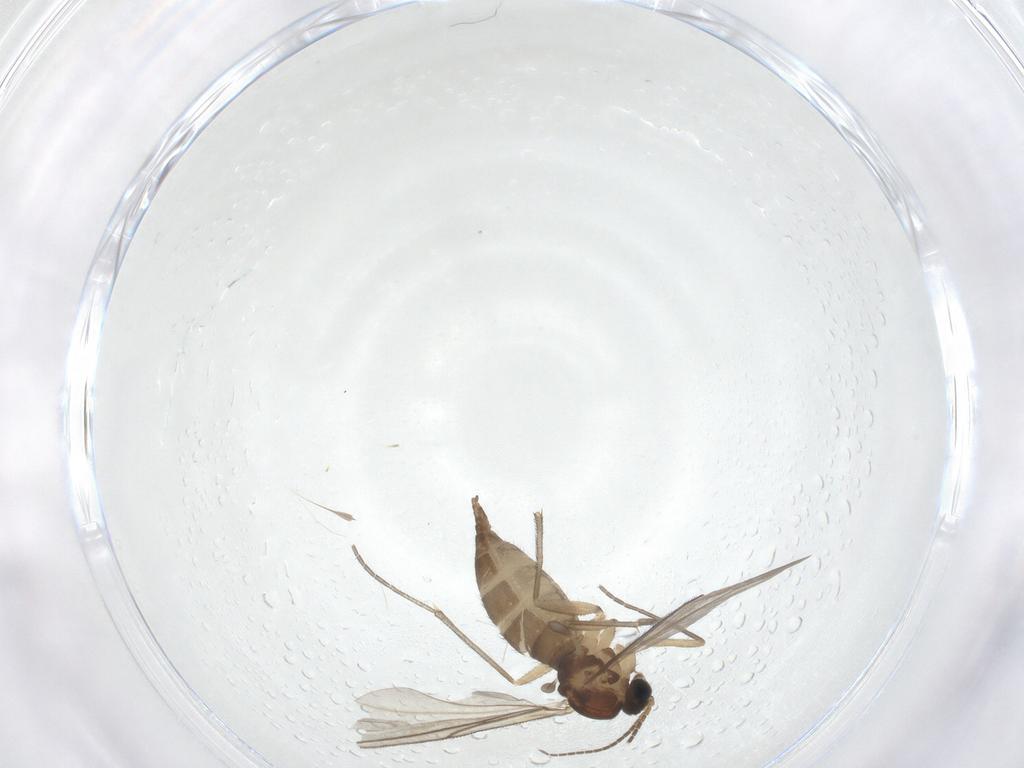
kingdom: Animalia
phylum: Arthropoda
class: Insecta
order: Diptera
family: Sciaridae
